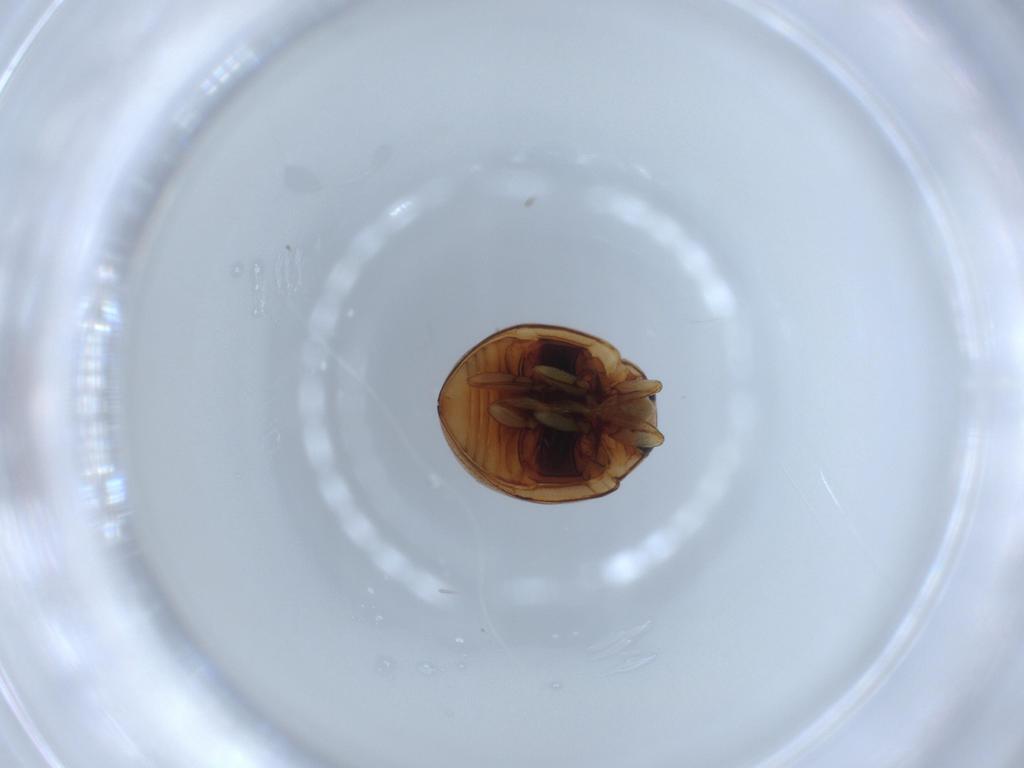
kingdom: Animalia
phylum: Arthropoda
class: Insecta
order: Coleoptera
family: Coccinellidae
